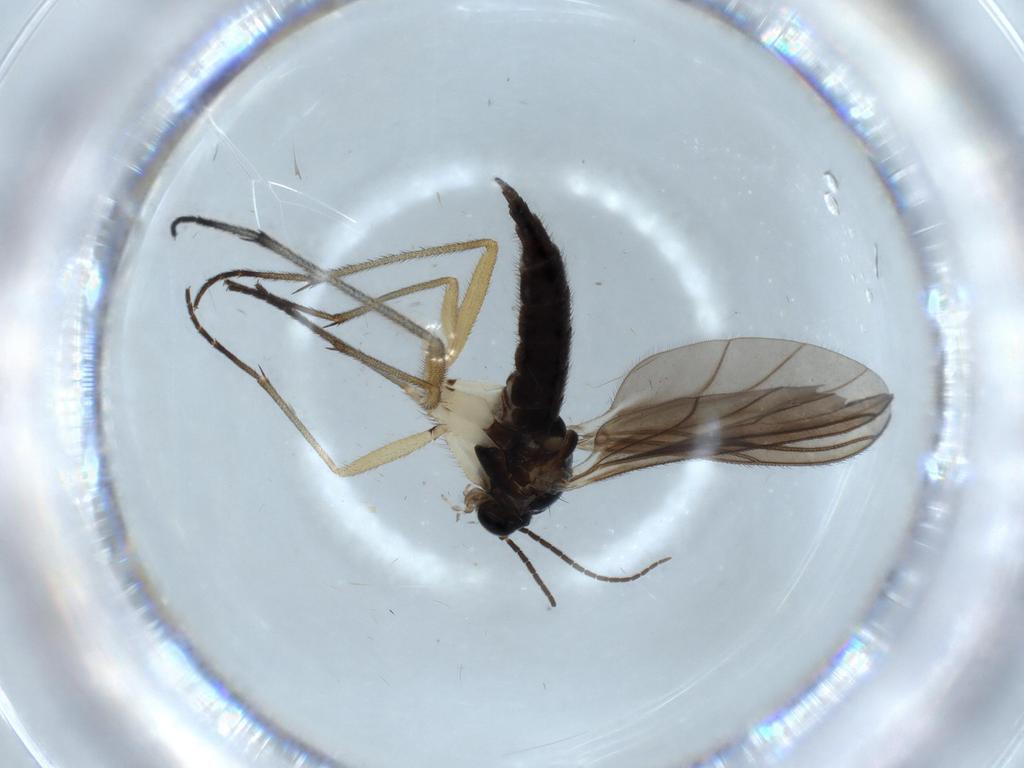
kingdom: Animalia
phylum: Arthropoda
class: Insecta
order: Diptera
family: Sciaridae
